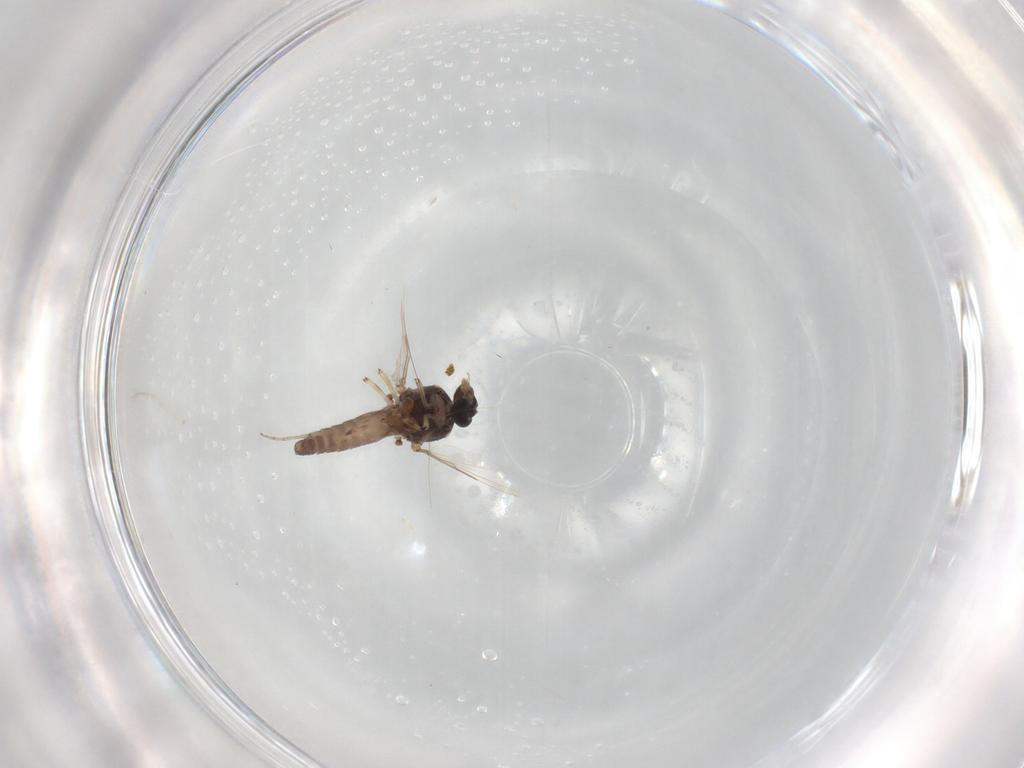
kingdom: Animalia
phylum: Arthropoda
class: Insecta
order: Diptera
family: Ceratopogonidae
